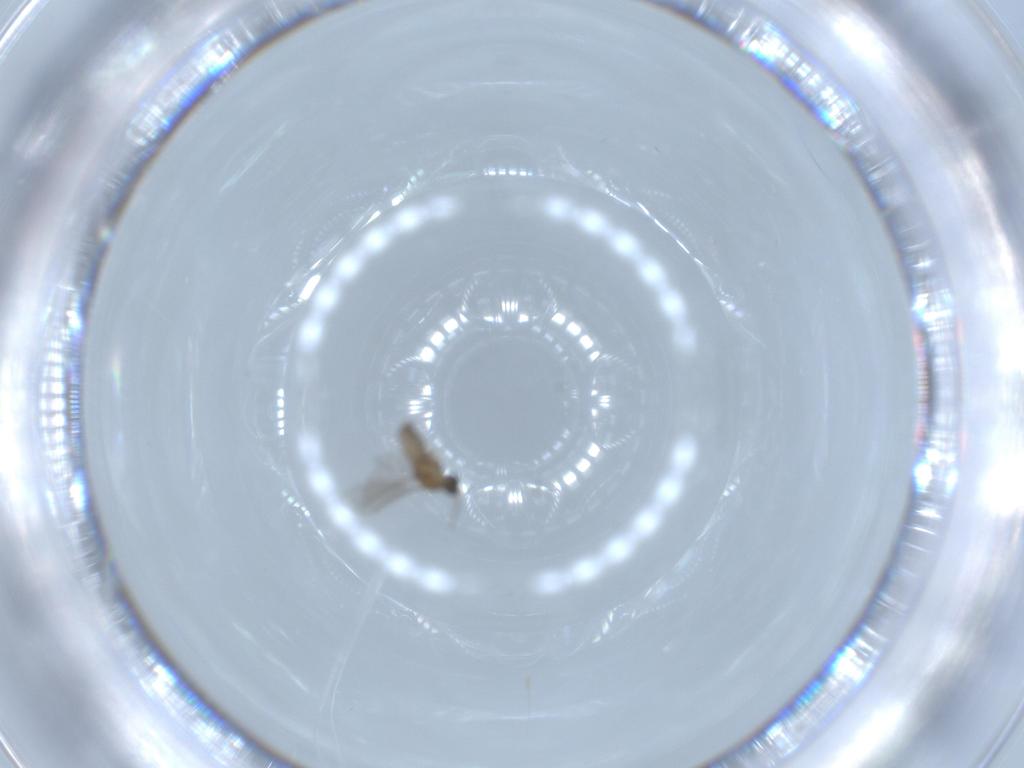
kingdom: Animalia
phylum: Arthropoda
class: Insecta
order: Diptera
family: Cecidomyiidae
